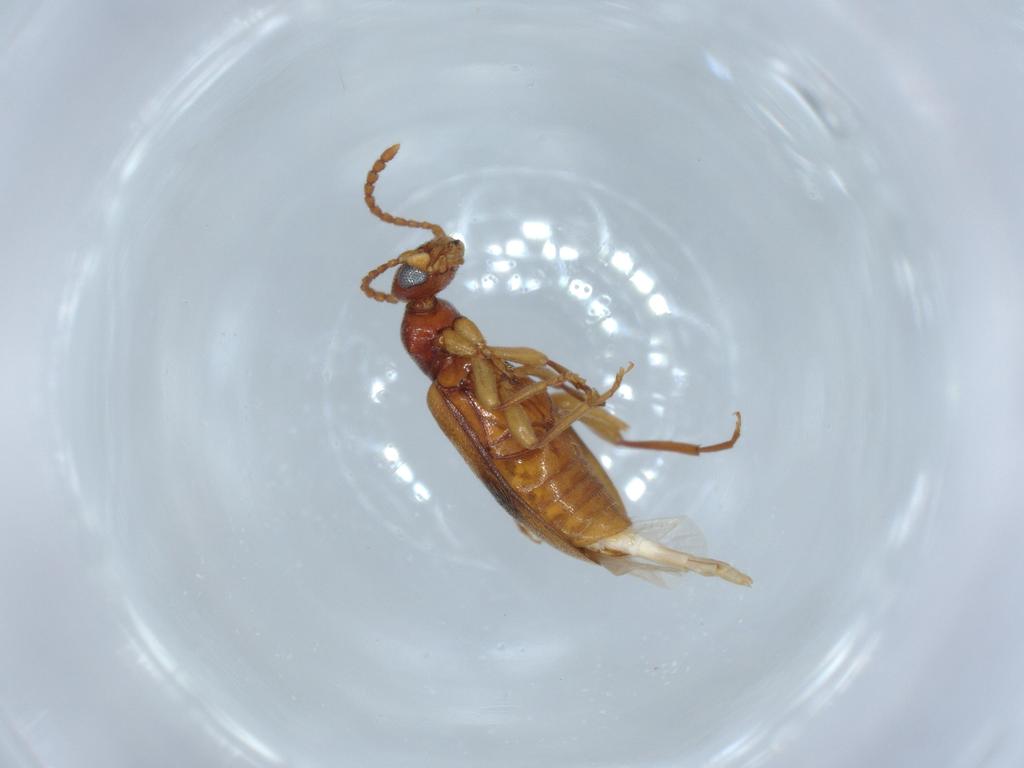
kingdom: Animalia
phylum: Arthropoda
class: Insecta
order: Coleoptera
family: Anthicidae
